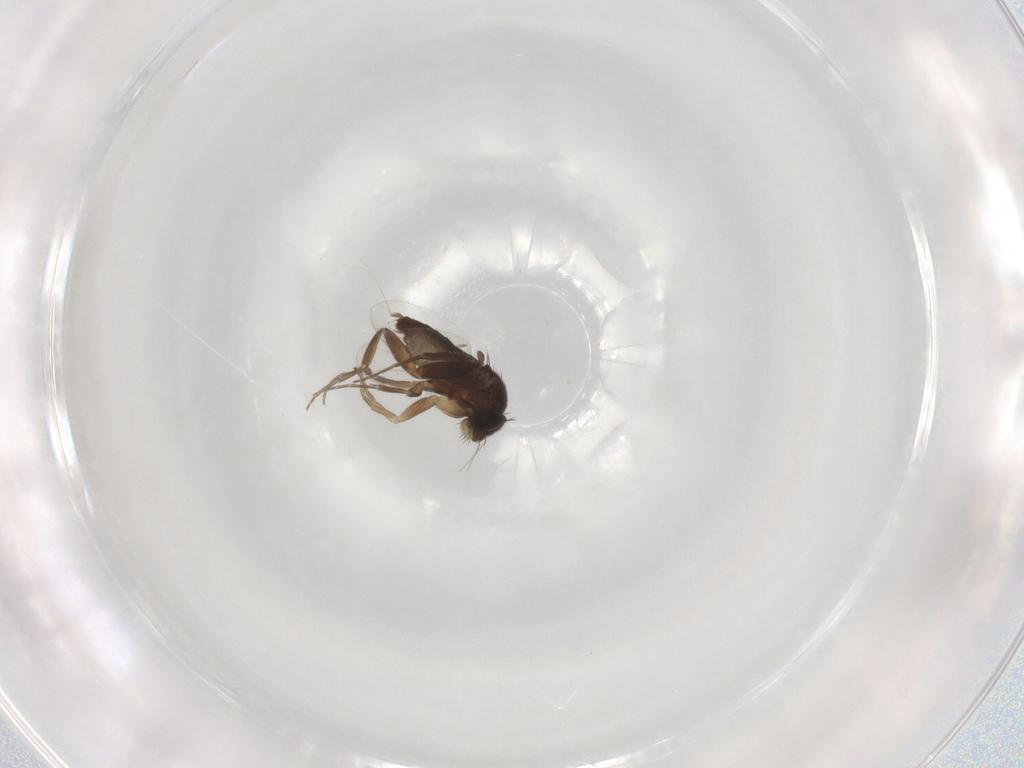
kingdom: Animalia
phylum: Arthropoda
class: Insecta
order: Diptera
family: Phoridae
